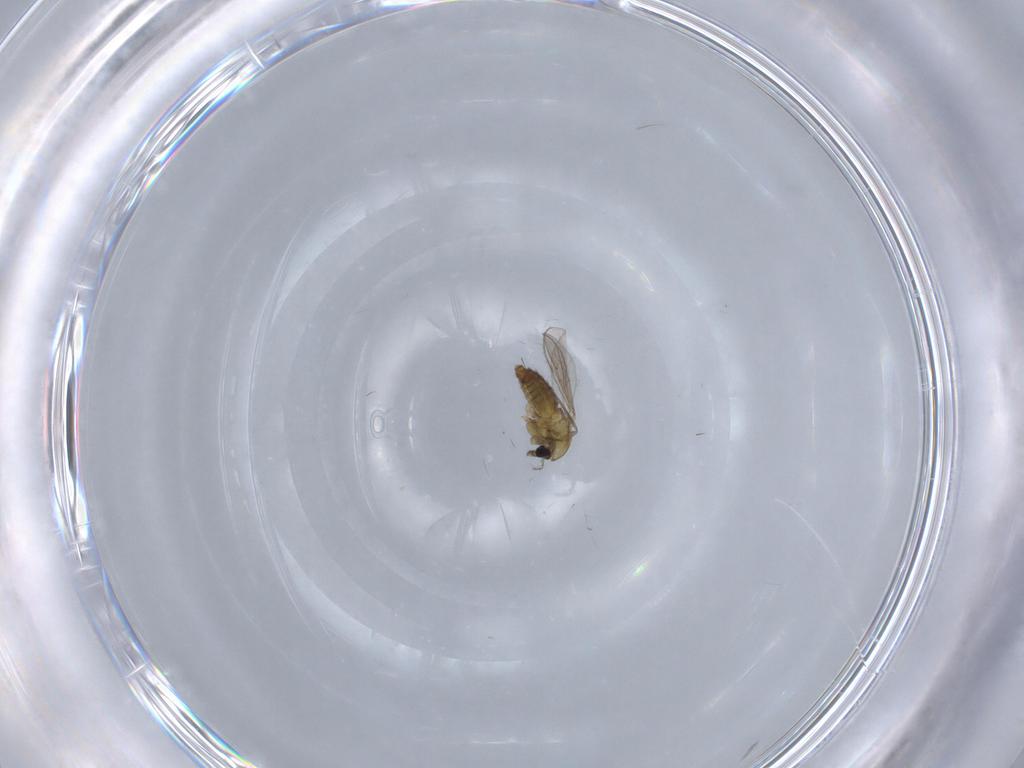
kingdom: Animalia
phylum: Arthropoda
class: Insecta
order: Diptera
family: Chironomidae
